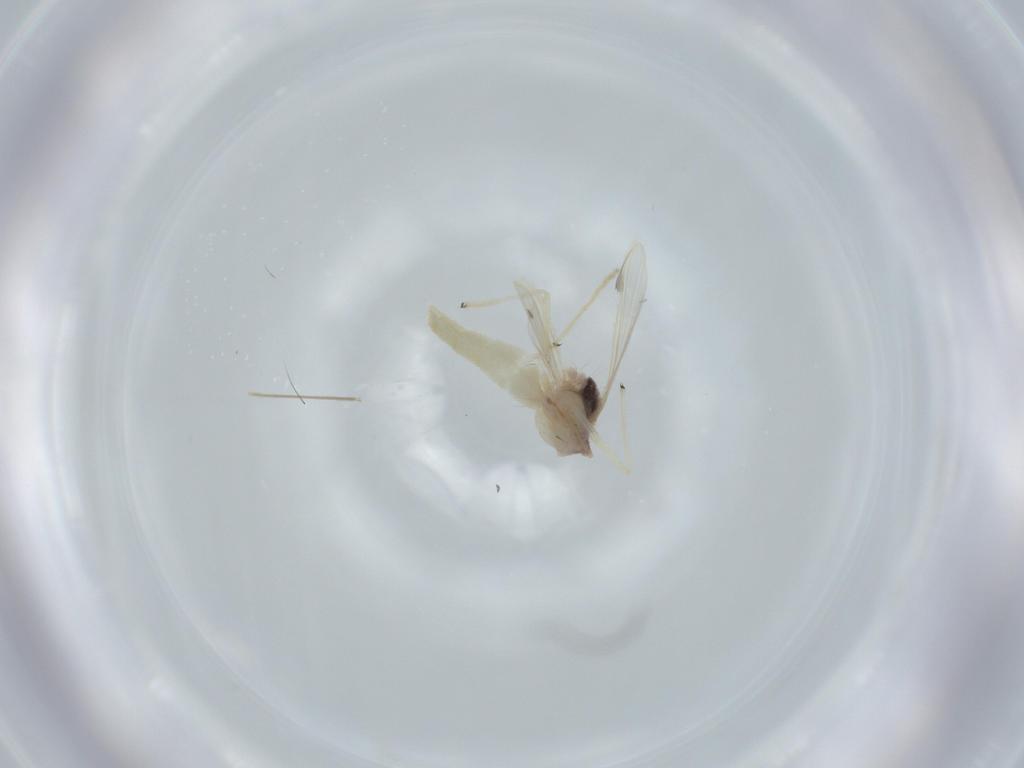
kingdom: Animalia
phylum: Arthropoda
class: Insecta
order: Diptera
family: Chironomidae
